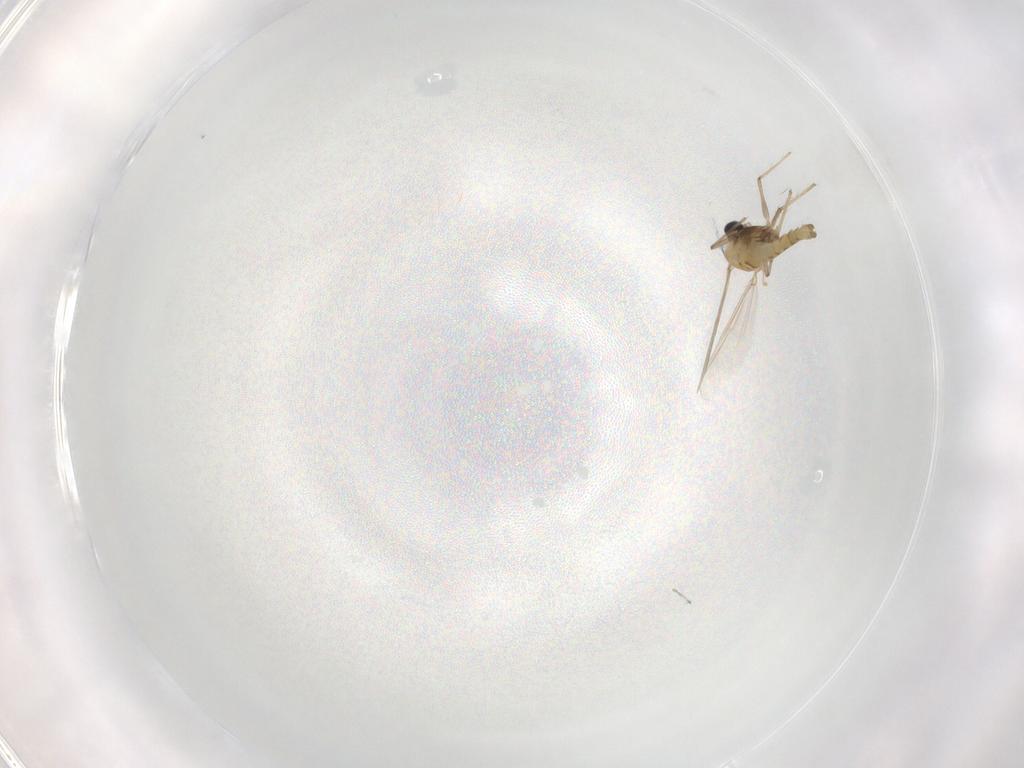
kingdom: Animalia
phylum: Arthropoda
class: Insecta
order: Diptera
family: Chironomidae
